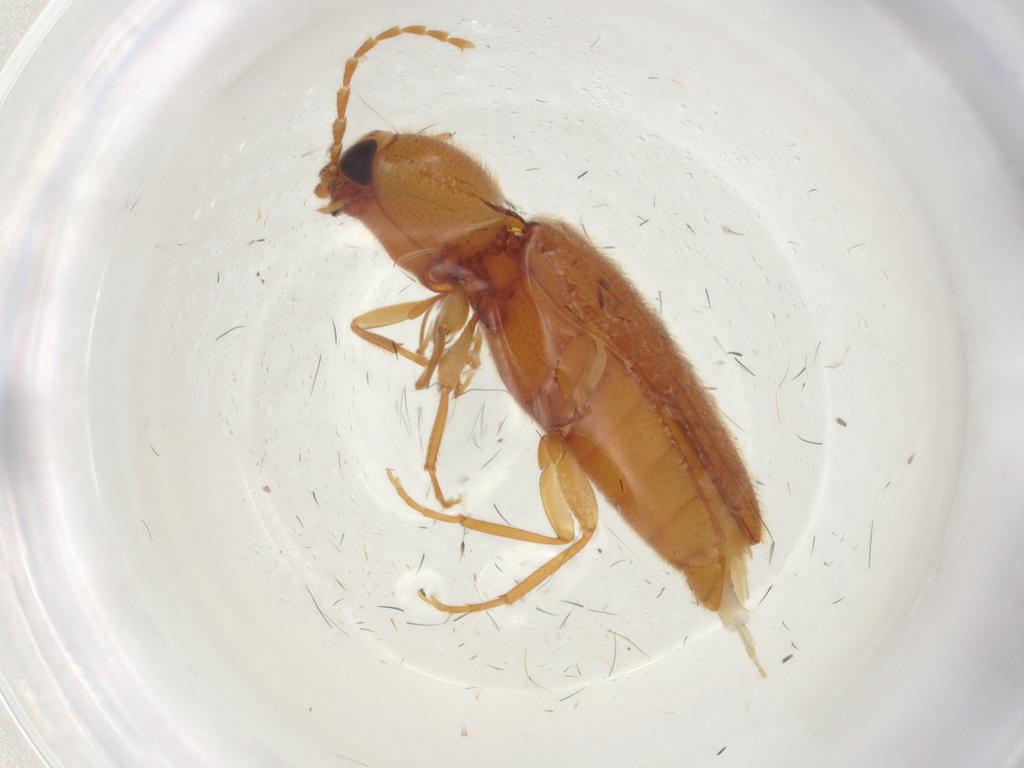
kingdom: Animalia
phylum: Arthropoda
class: Insecta
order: Coleoptera
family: Elateridae
